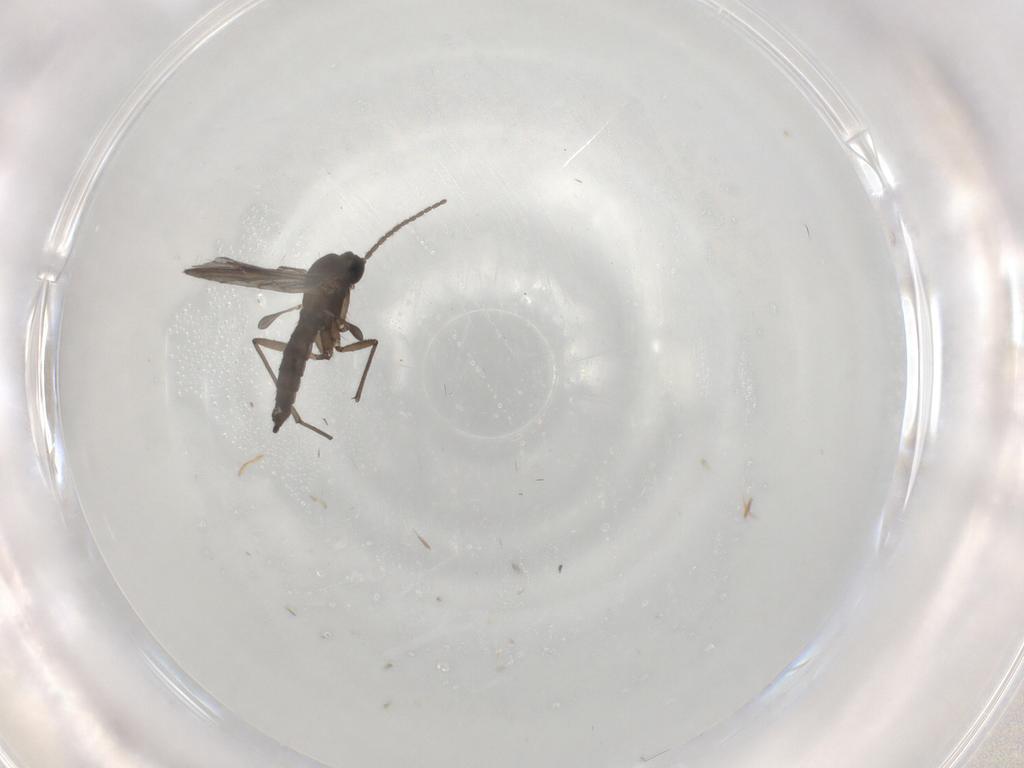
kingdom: Animalia
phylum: Arthropoda
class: Insecta
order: Diptera
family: Sciaridae
